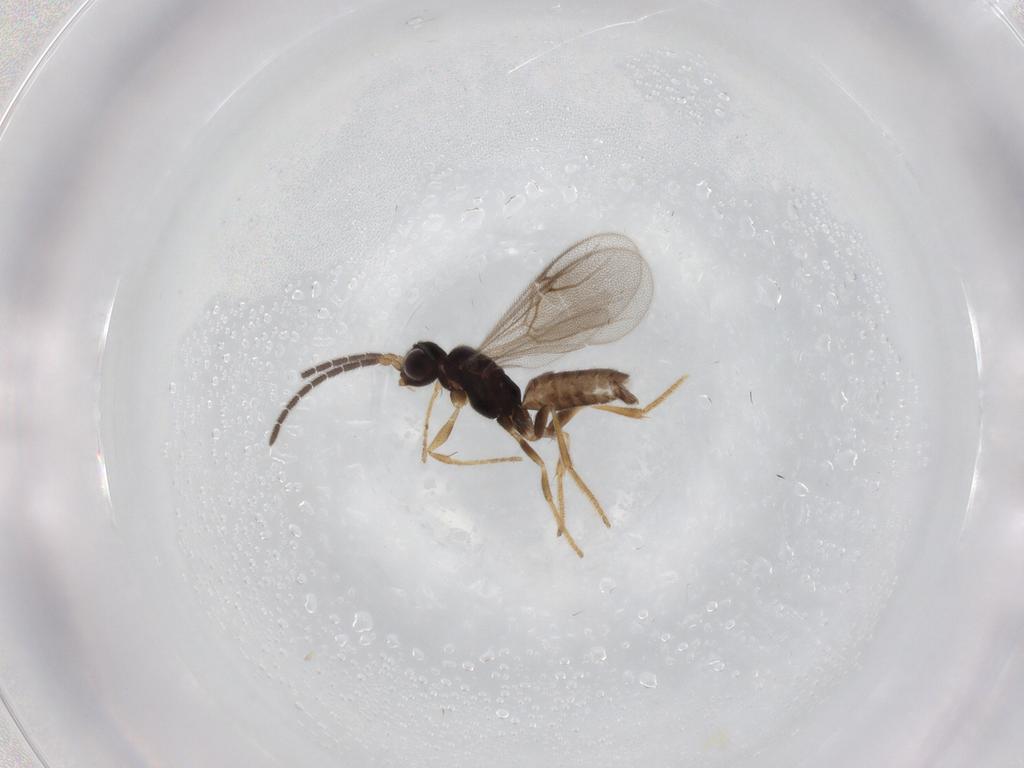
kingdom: Animalia
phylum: Arthropoda
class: Insecta
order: Hymenoptera
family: Dryinidae
